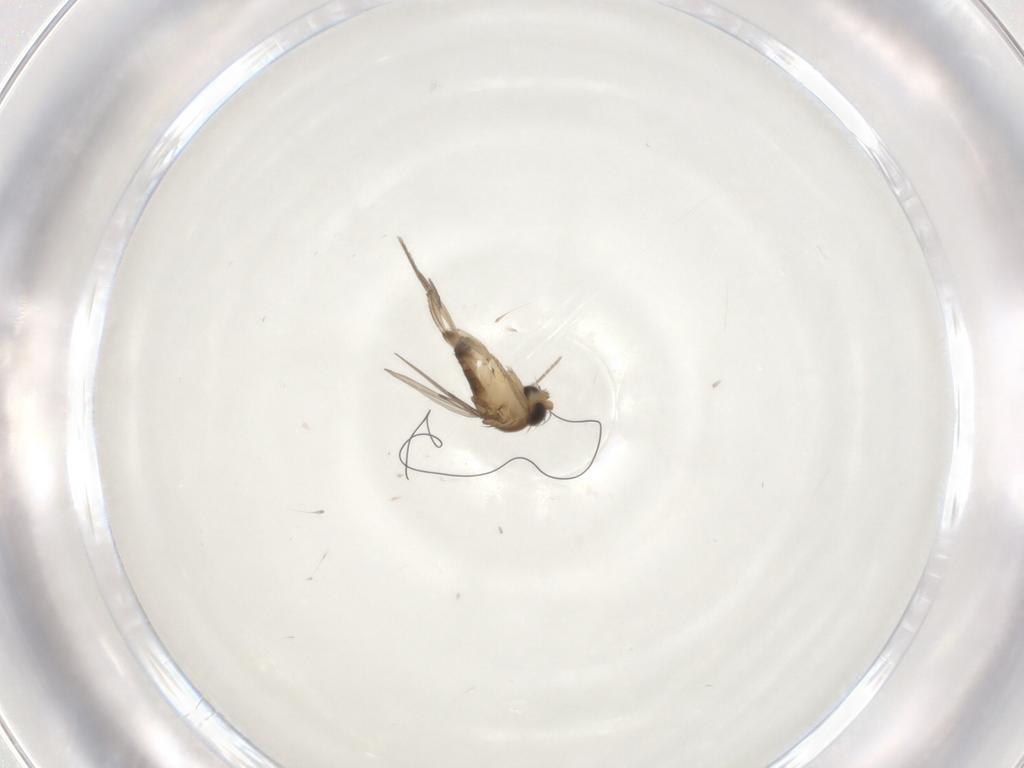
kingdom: Animalia
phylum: Arthropoda
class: Insecta
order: Diptera
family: Phoridae
